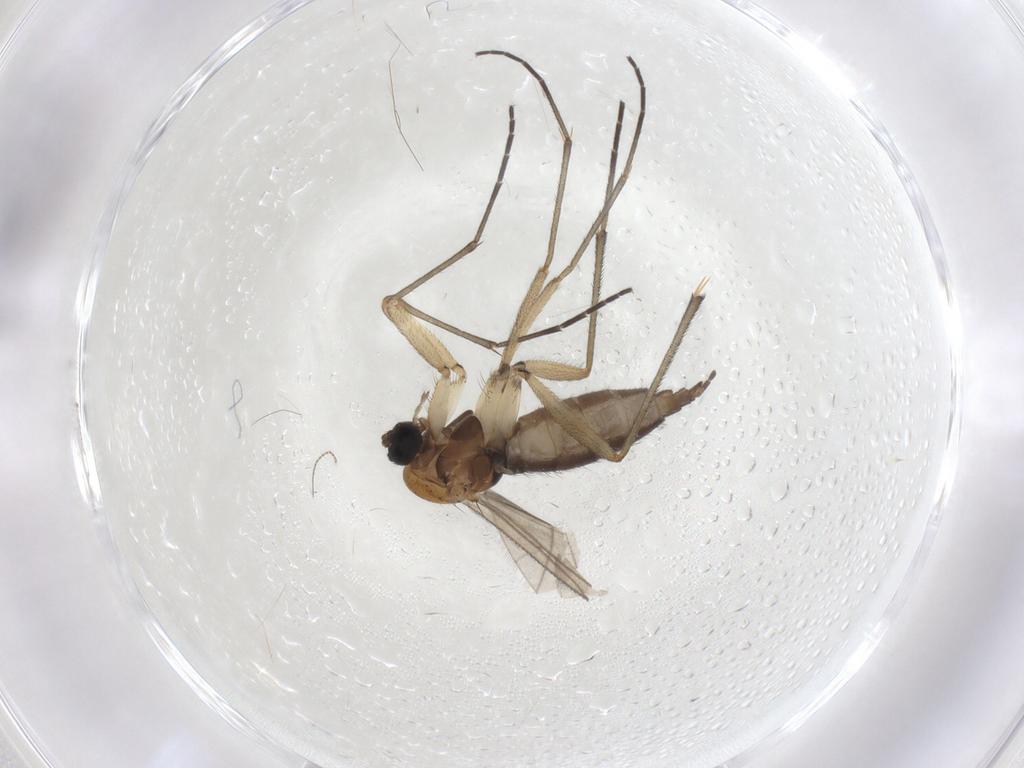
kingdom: Animalia
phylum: Arthropoda
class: Insecta
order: Diptera
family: Sciaridae
